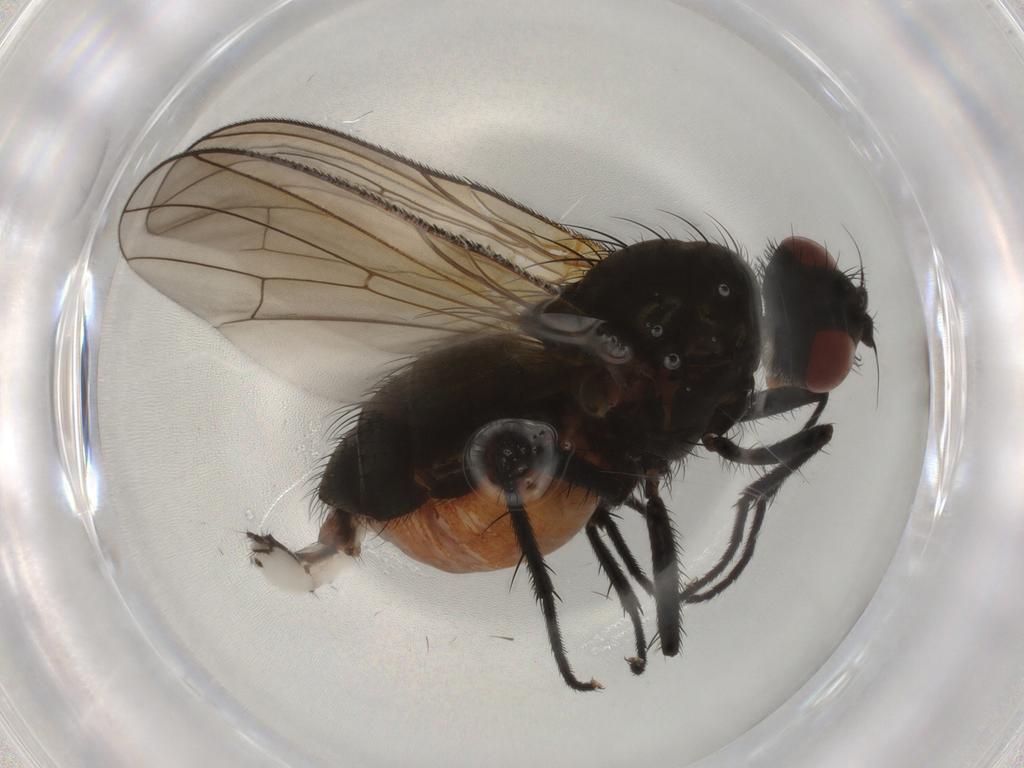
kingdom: Animalia
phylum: Arthropoda
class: Insecta
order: Diptera
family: Anthomyiidae
